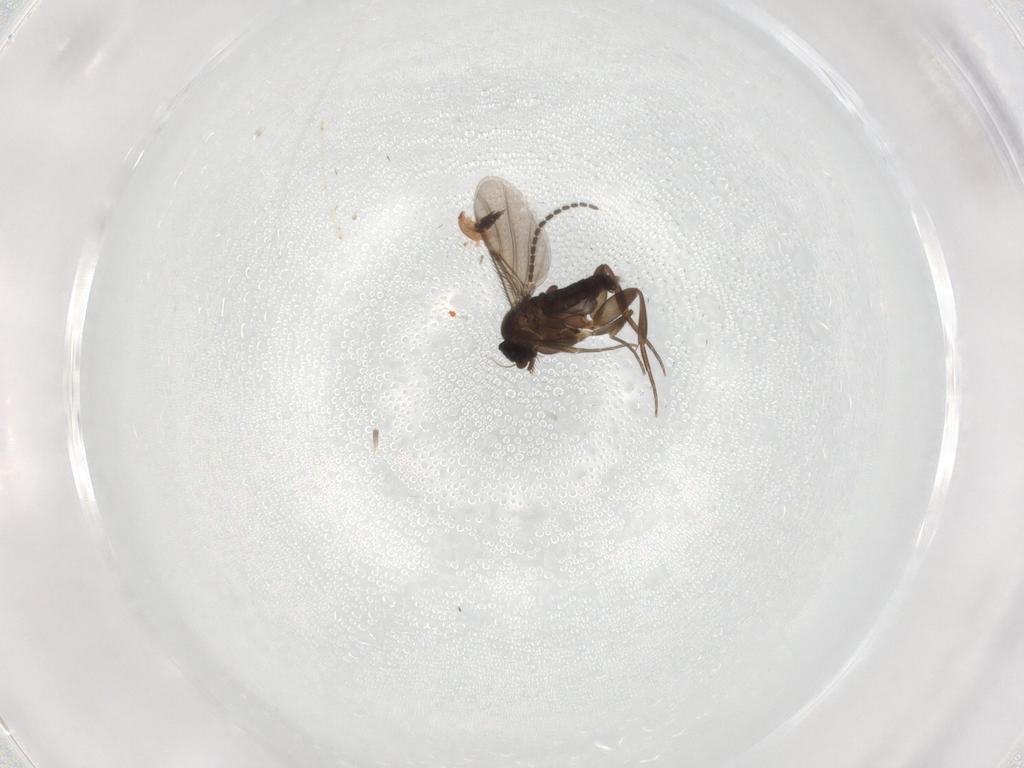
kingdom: Animalia
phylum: Arthropoda
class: Insecta
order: Diptera
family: Phoridae
